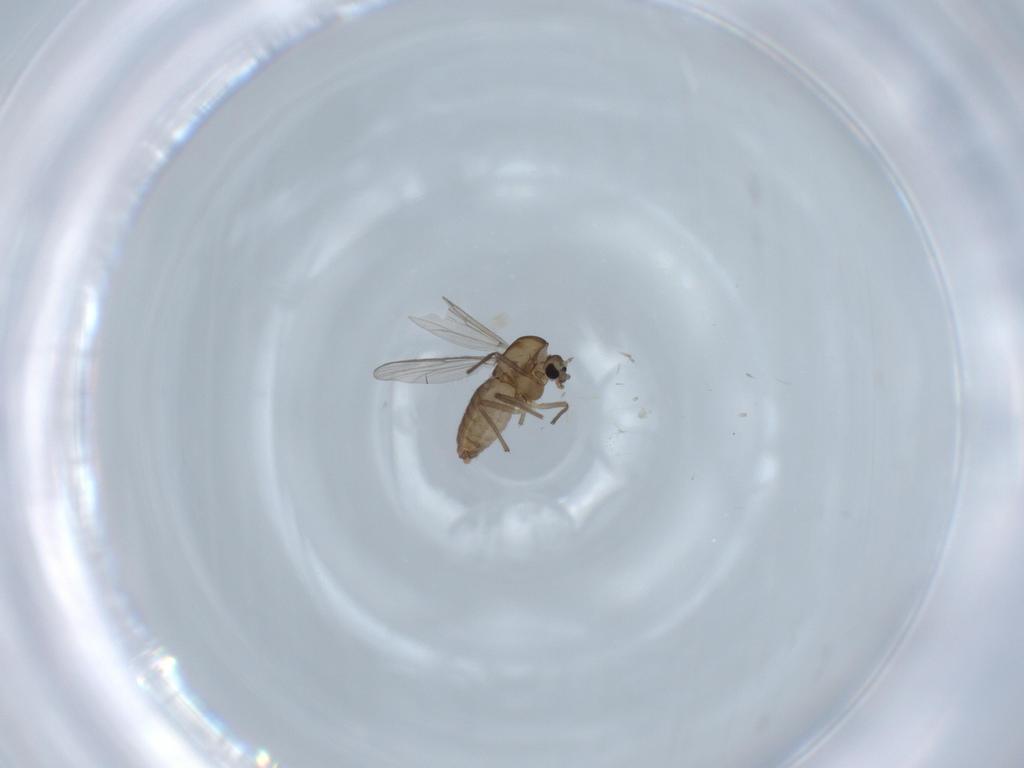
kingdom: Animalia
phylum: Arthropoda
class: Insecta
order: Diptera
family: Chironomidae
